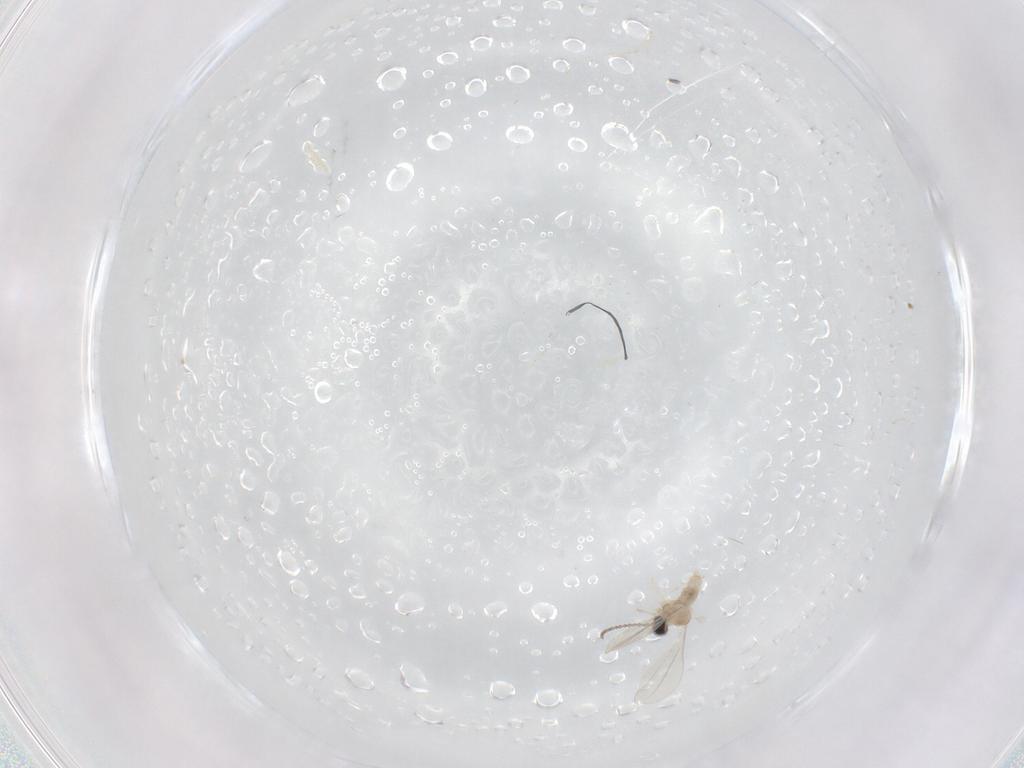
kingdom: Animalia
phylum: Arthropoda
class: Insecta
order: Diptera
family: Cecidomyiidae
